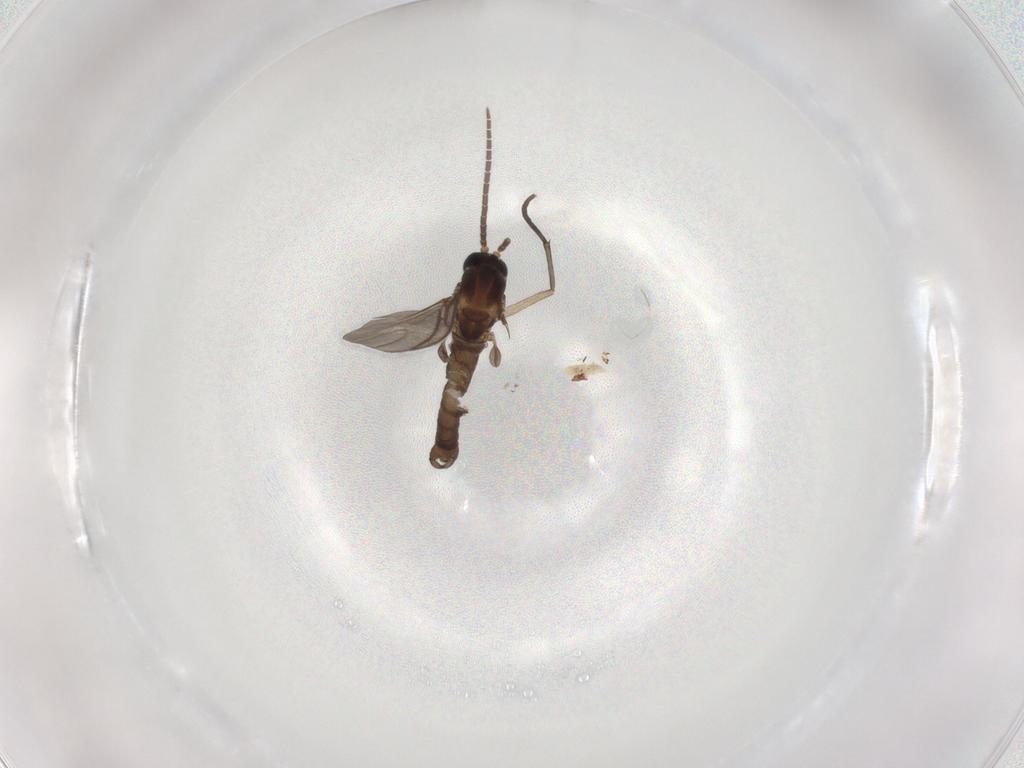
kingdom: Animalia
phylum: Arthropoda
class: Insecta
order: Diptera
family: Sciaridae
